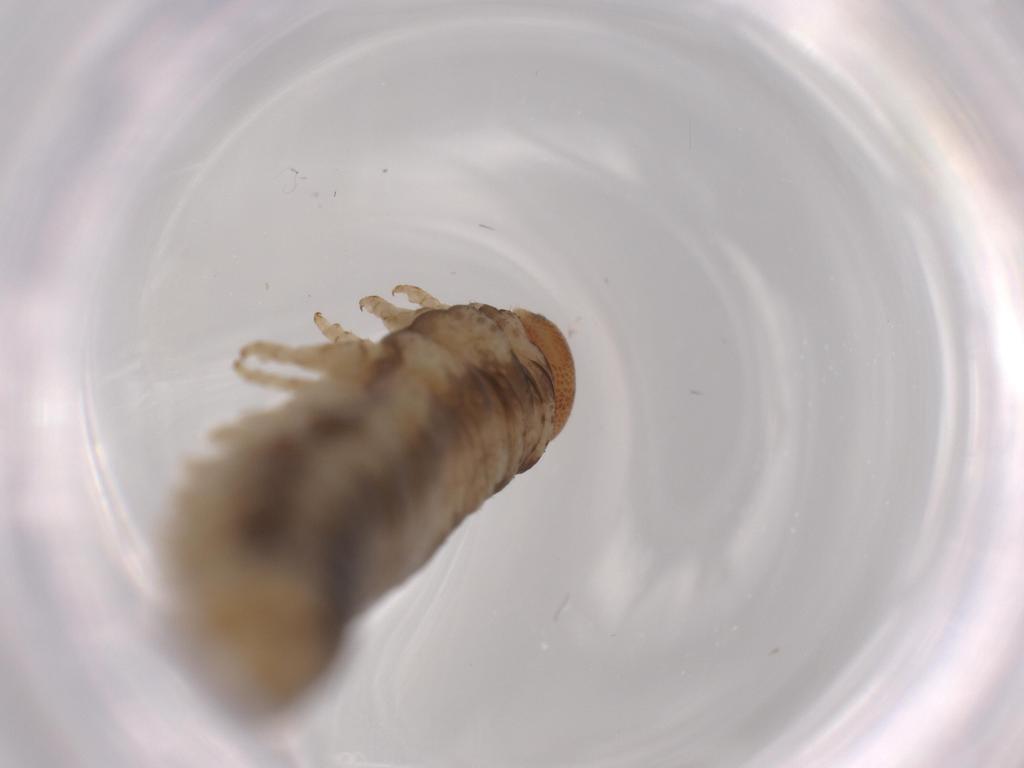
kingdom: Animalia
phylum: Arthropoda
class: Insecta
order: Hymenoptera
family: Tenthredinidae
